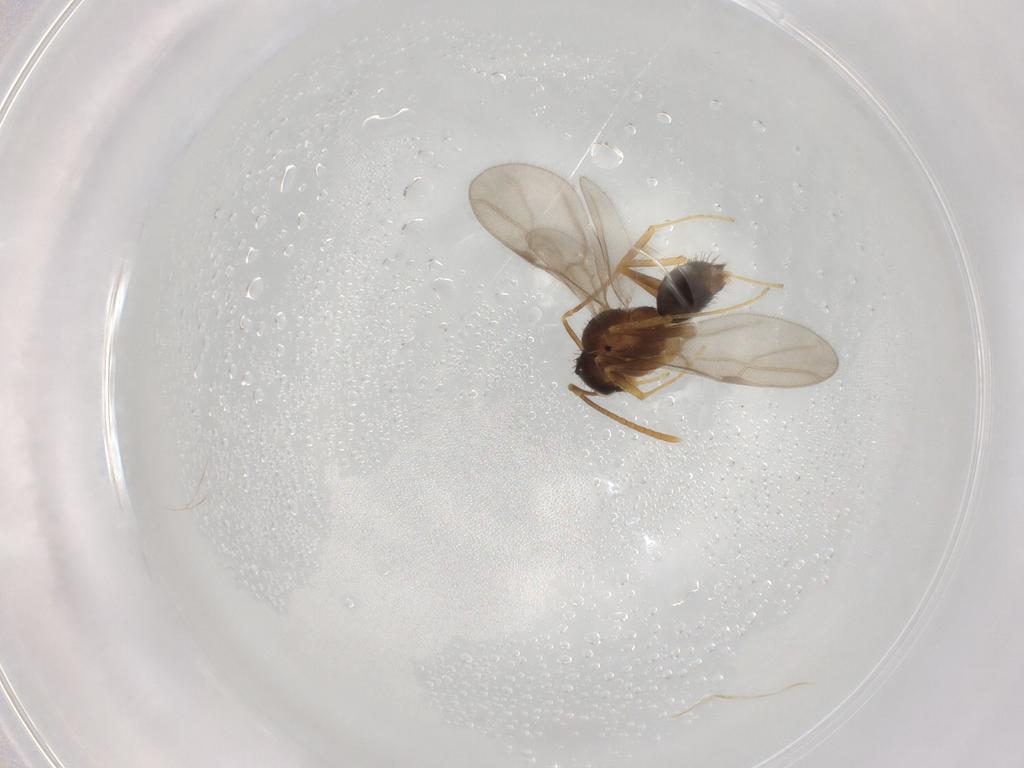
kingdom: Animalia
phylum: Arthropoda
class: Insecta
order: Hymenoptera
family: Formicidae
